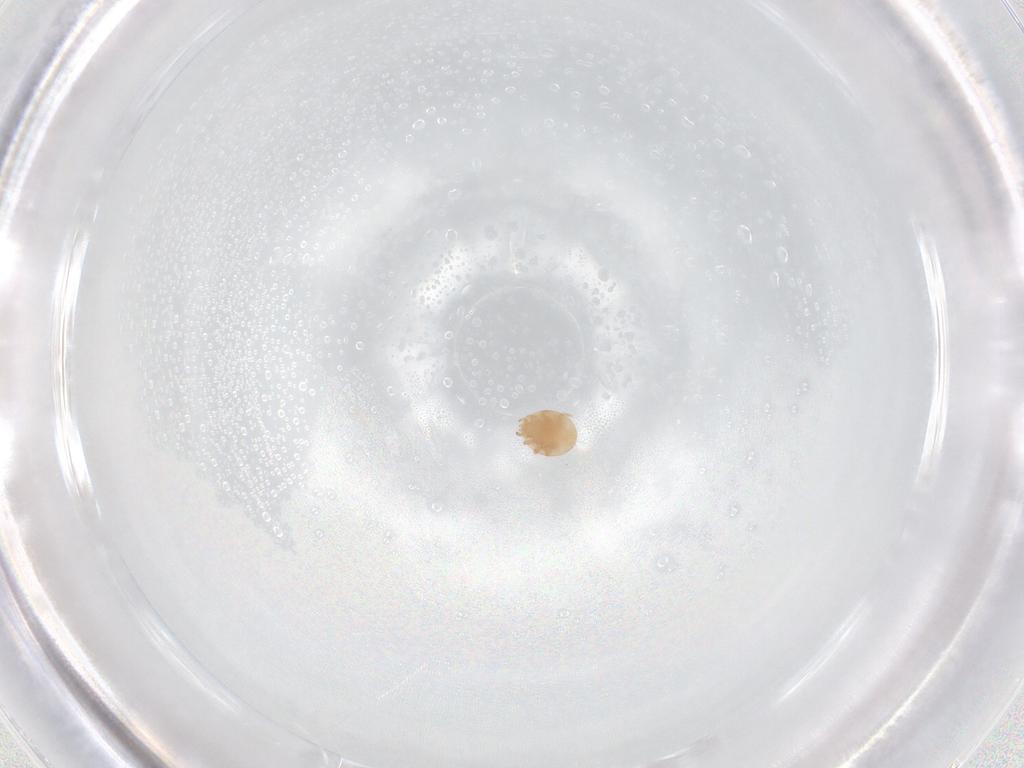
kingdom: Animalia
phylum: Arthropoda
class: Arachnida
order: Mesostigmata
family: Trematuridae
